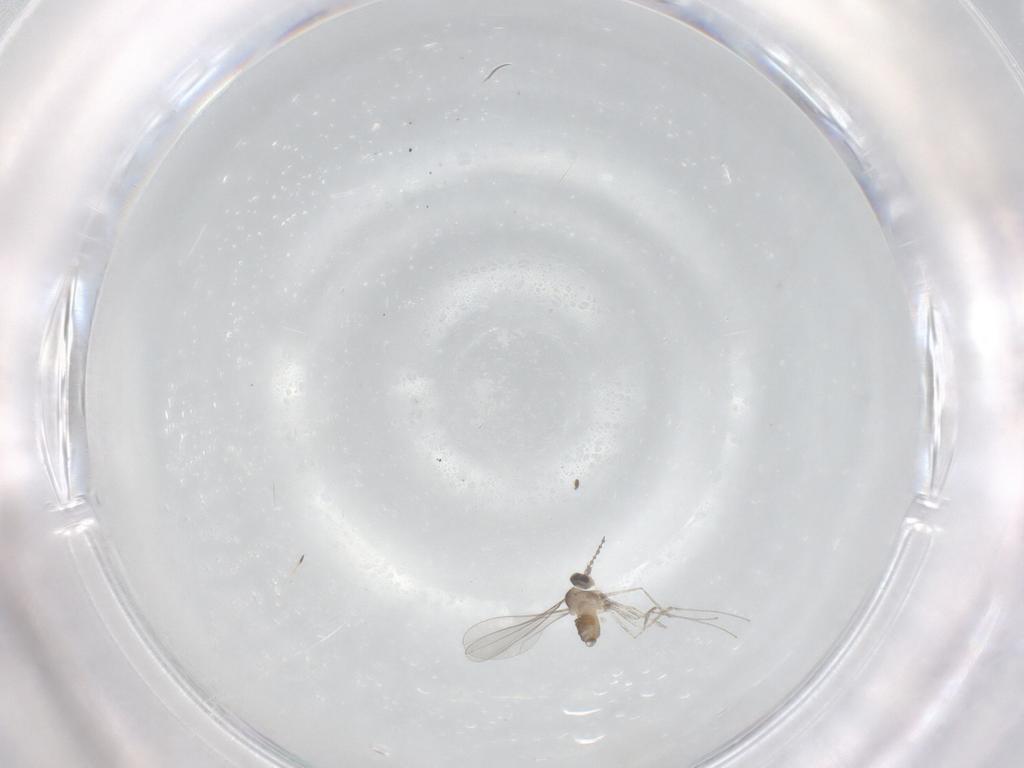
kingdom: Animalia
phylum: Arthropoda
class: Insecta
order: Diptera
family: Cecidomyiidae
